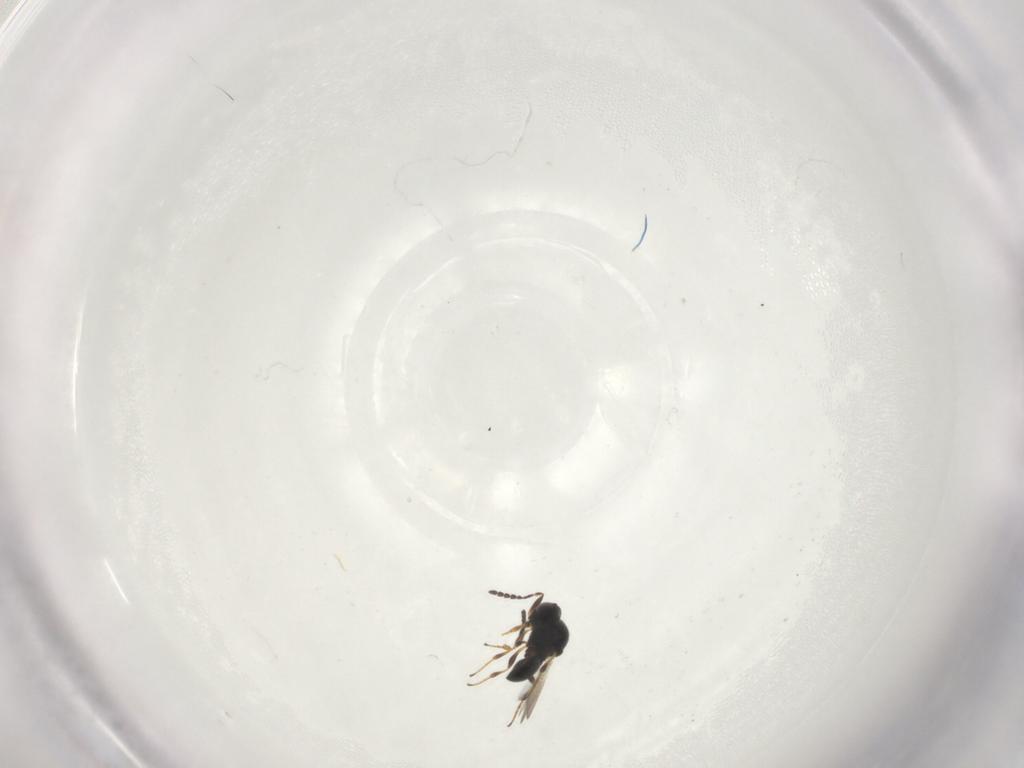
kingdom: Animalia
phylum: Arthropoda
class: Insecta
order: Hymenoptera
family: Platygastridae
